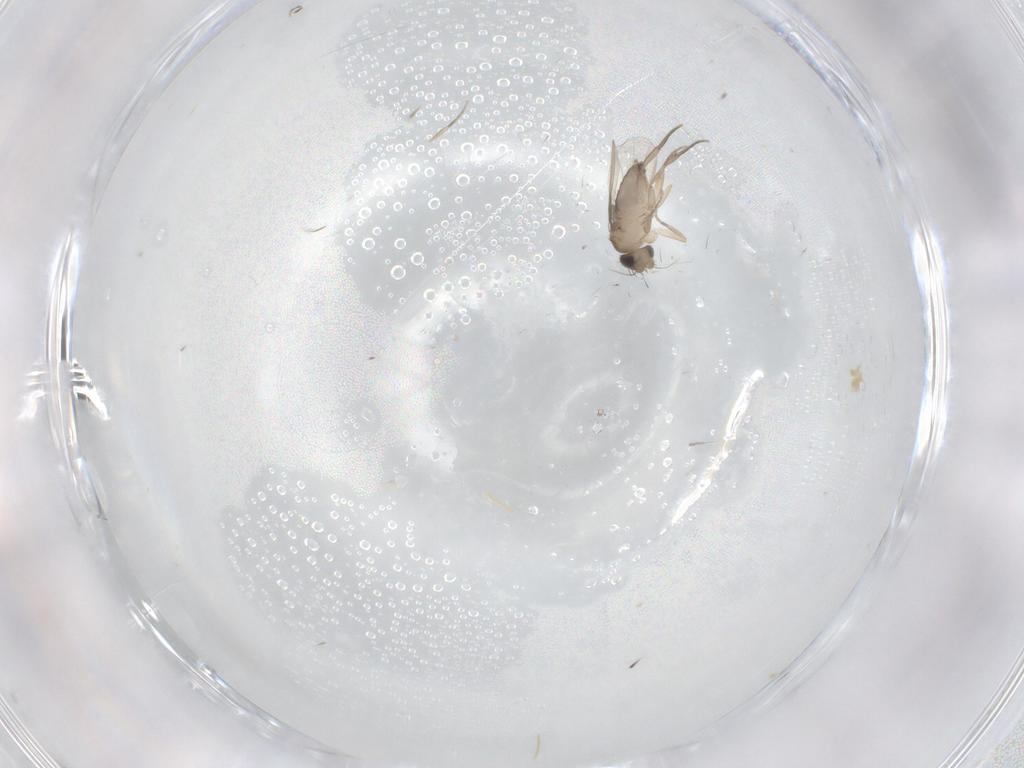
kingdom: Animalia
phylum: Arthropoda
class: Insecta
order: Diptera
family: Phoridae
